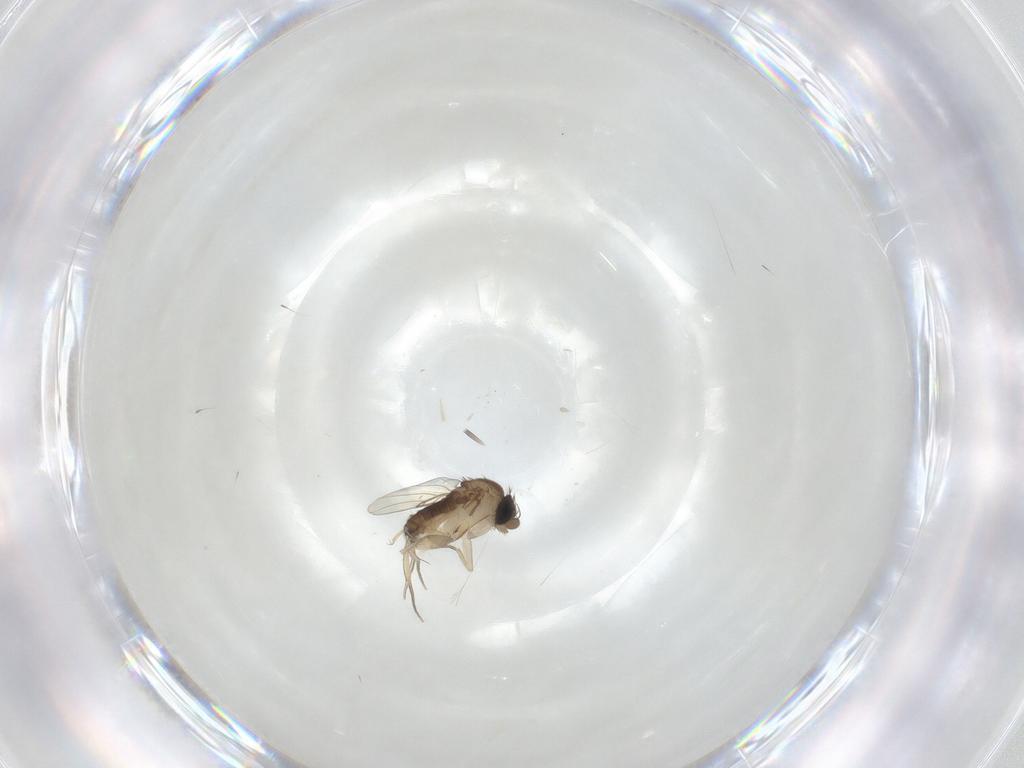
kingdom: Animalia
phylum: Arthropoda
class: Insecta
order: Diptera
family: Phoridae
